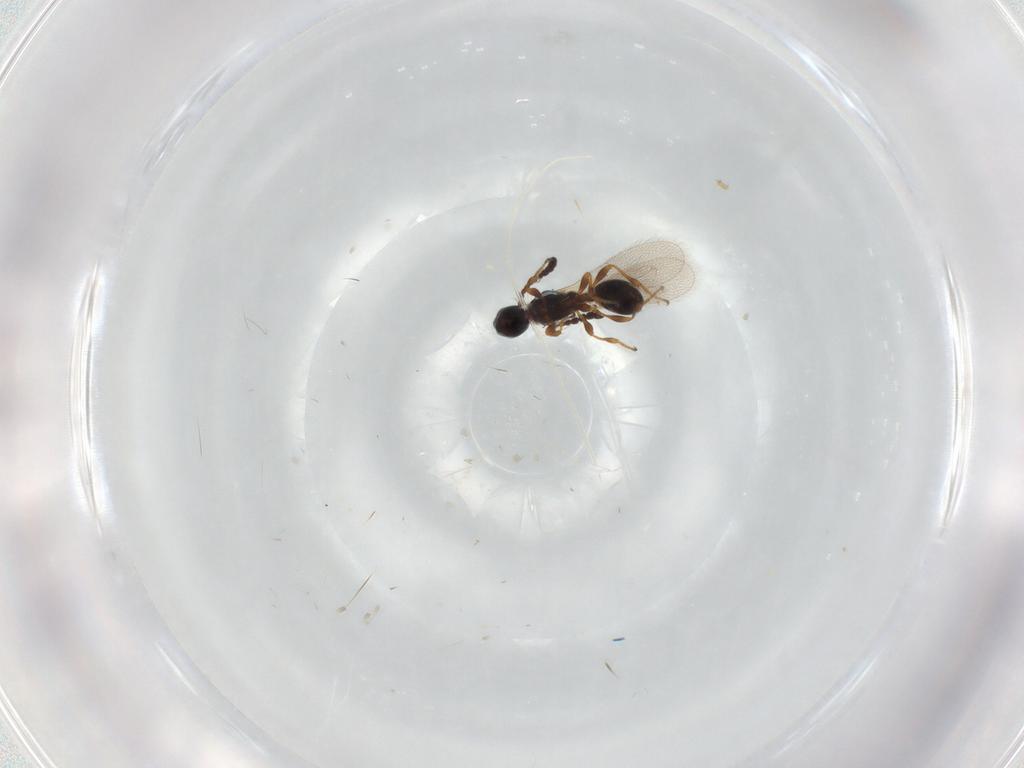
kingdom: Animalia
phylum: Arthropoda
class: Insecta
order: Hymenoptera
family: Diapriidae
